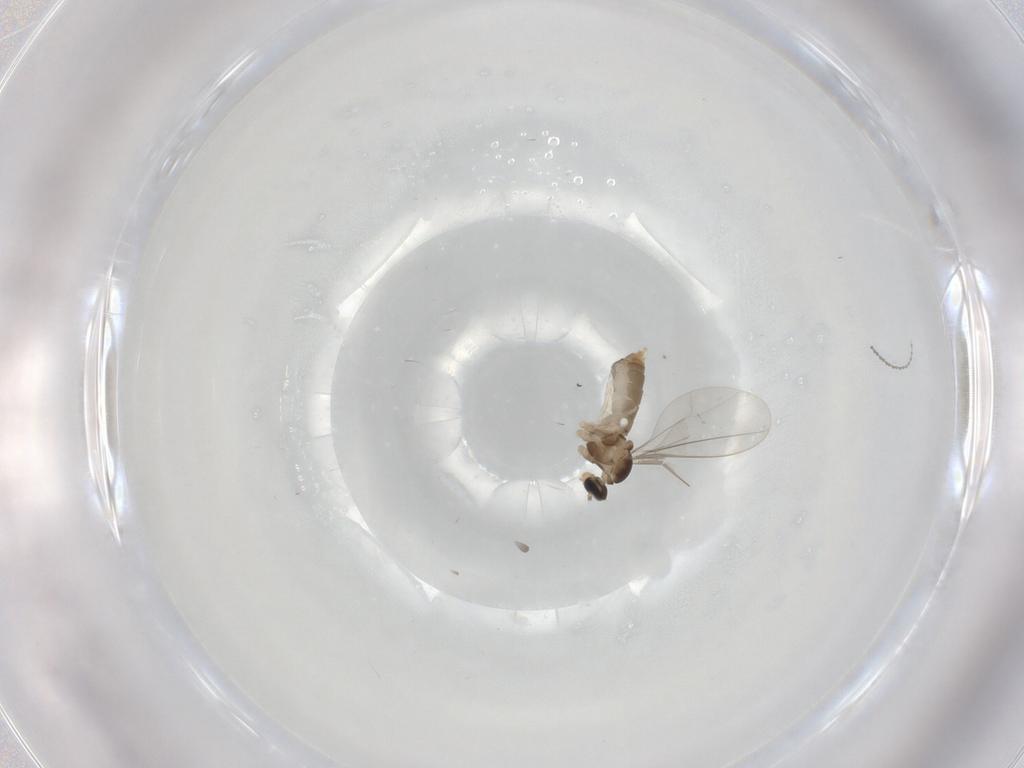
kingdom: Animalia
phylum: Arthropoda
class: Insecta
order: Diptera
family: Cecidomyiidae
